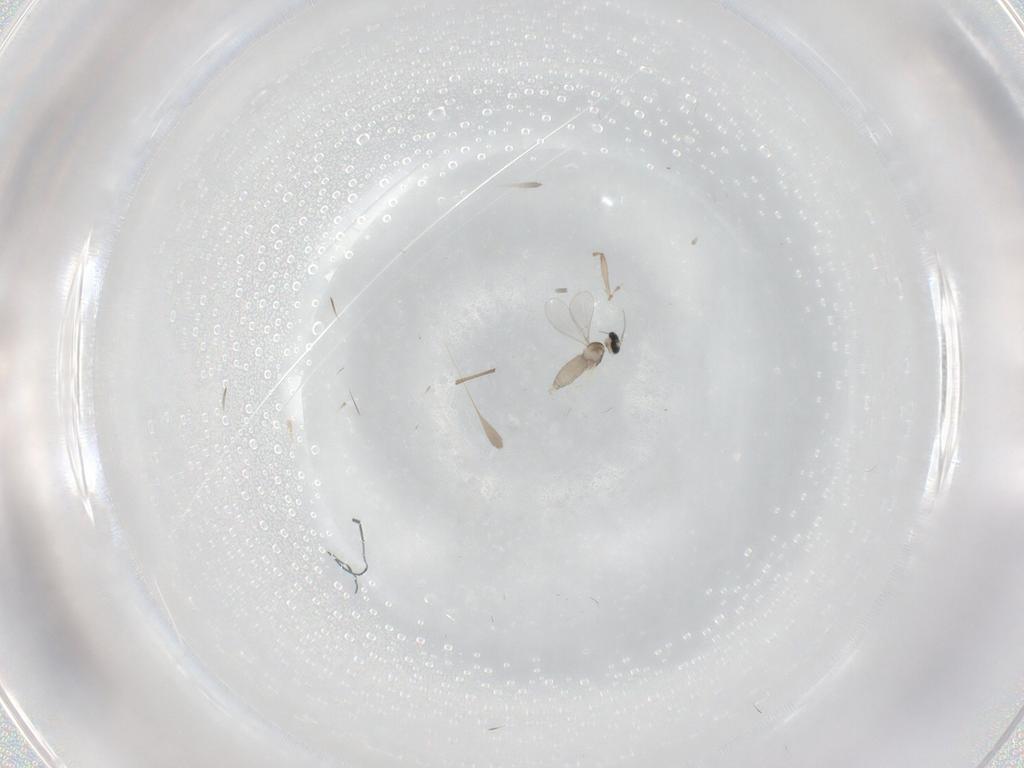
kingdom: Animalia
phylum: Arthropoda
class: Insecta
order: Diptera
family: Chironomidae
